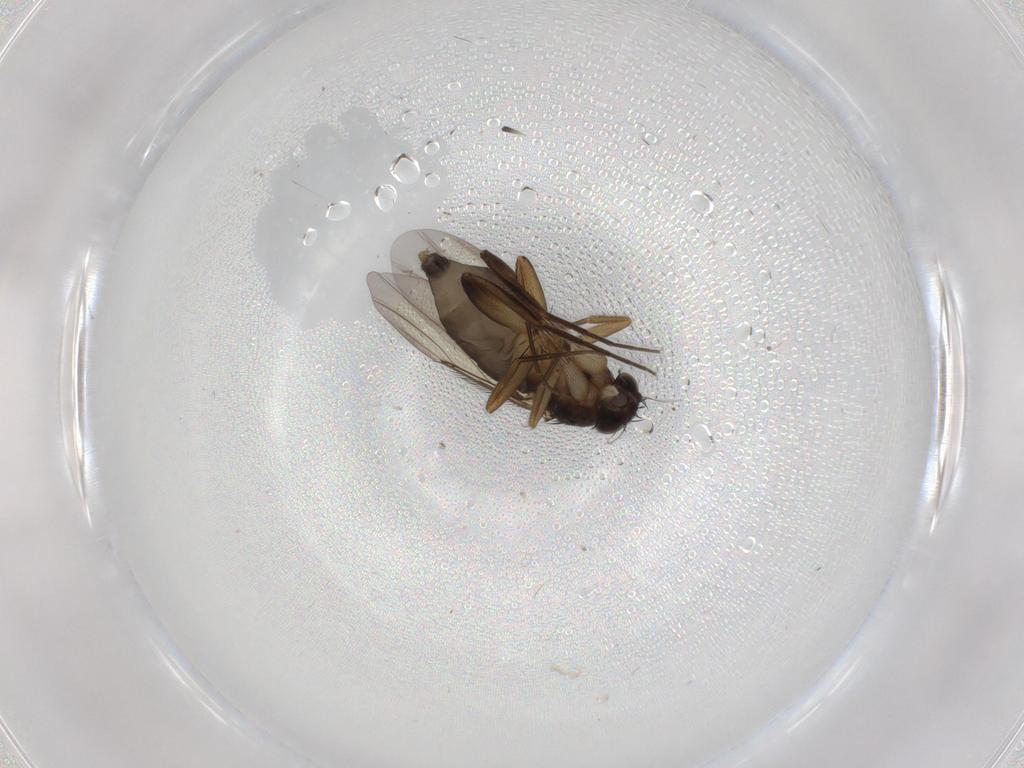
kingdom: Animalia
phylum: Arthropoda
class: Insecta
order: Diptera
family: Phoridae
